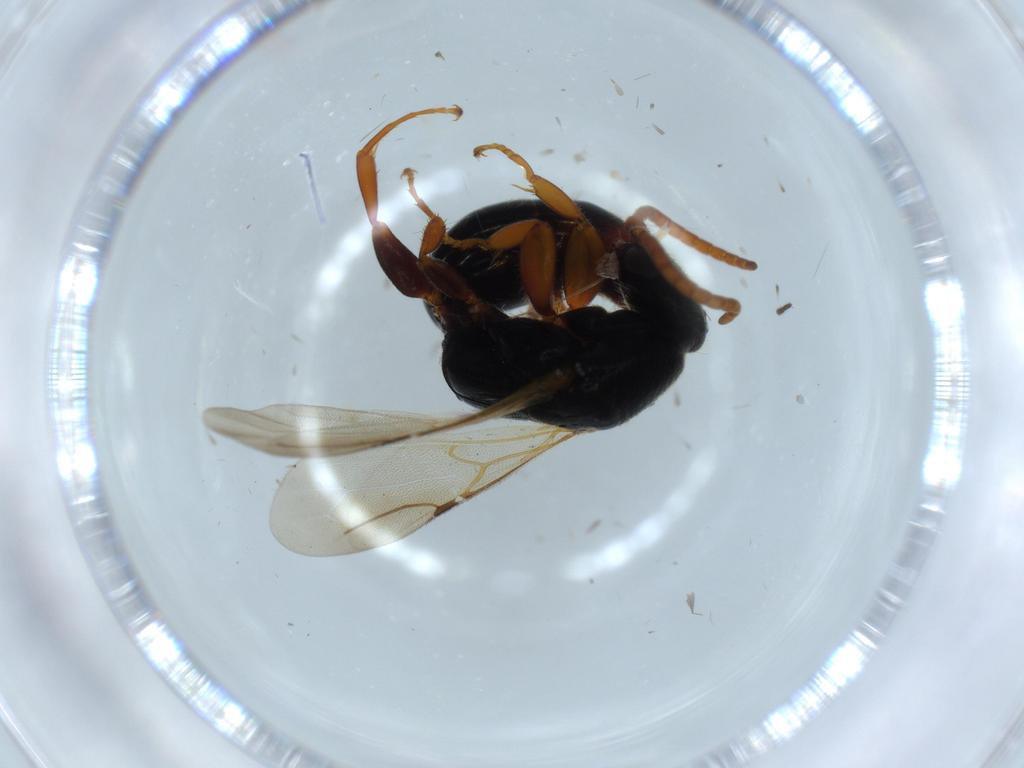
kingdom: Animalia
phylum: Arthropoda
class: Insecta
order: Hymenoptera
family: Bethylidae
